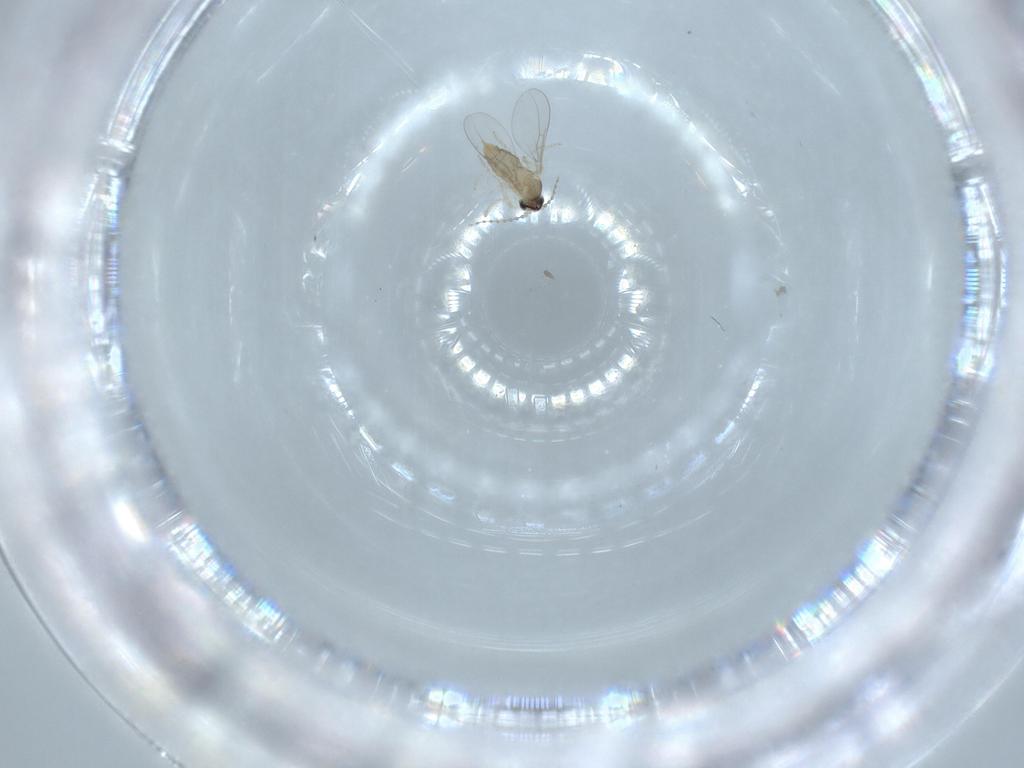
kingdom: Animalia
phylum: Arthropoda
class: Insecta
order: Diptera
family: Cecidomyiidae
